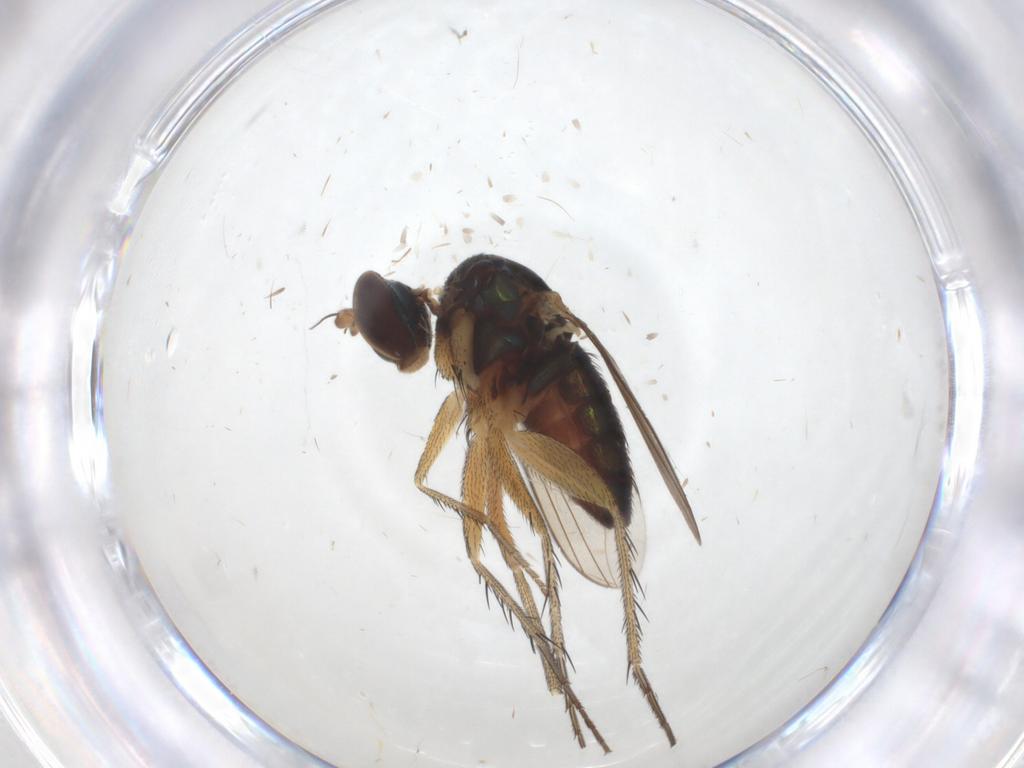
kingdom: Animalia
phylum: Arthropoda
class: Insecta
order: Diptera
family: Dolichopodidae
